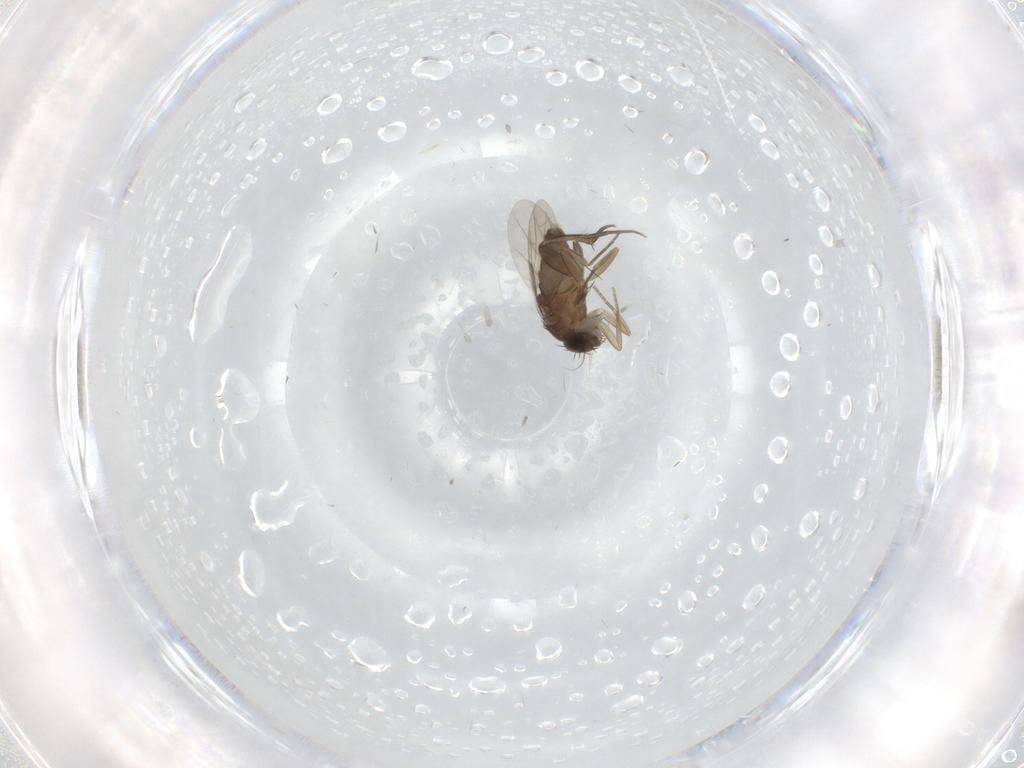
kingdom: Animalia
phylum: Arthropoda
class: Insecta
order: Diptera
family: Phoridae
